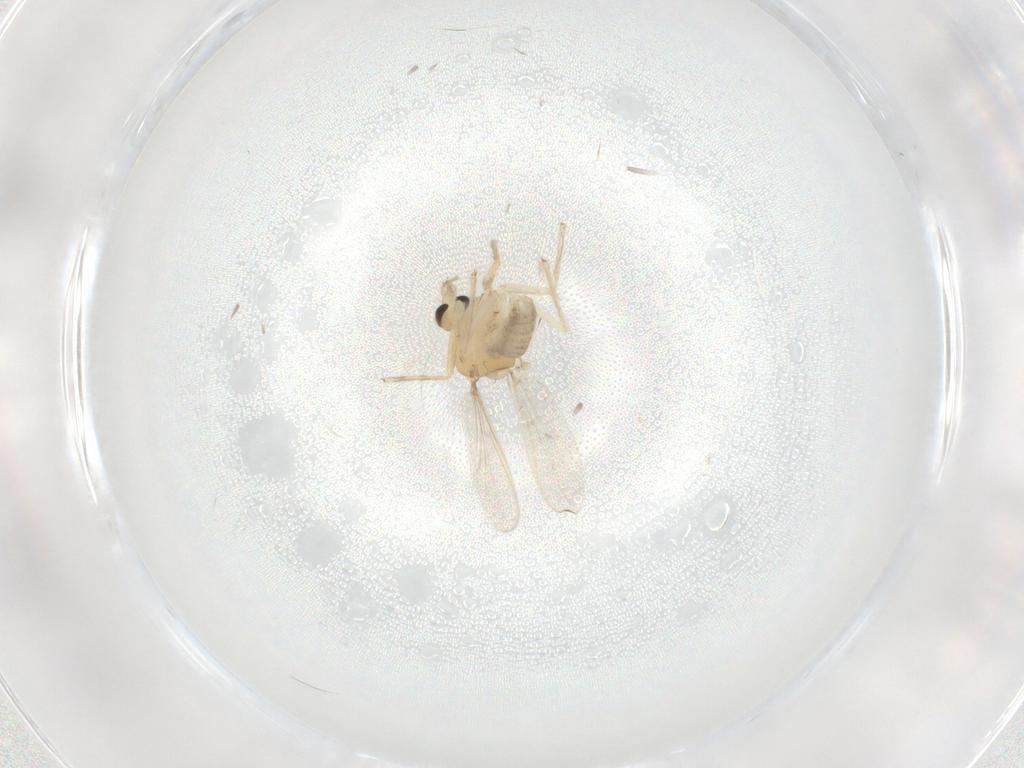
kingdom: Animalia
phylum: Arthropoda
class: Insecta
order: Diptera
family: Chironomidae
